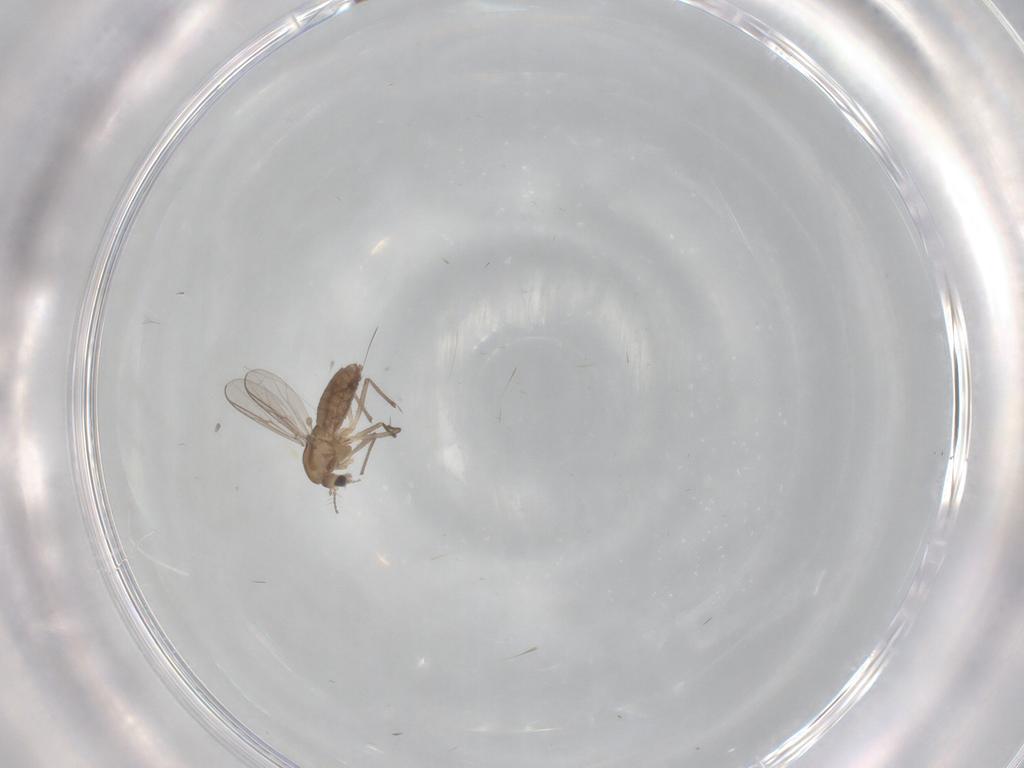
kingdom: Animalia
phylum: Arthropoda
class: Insecta
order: Diptera
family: Chironomidae
